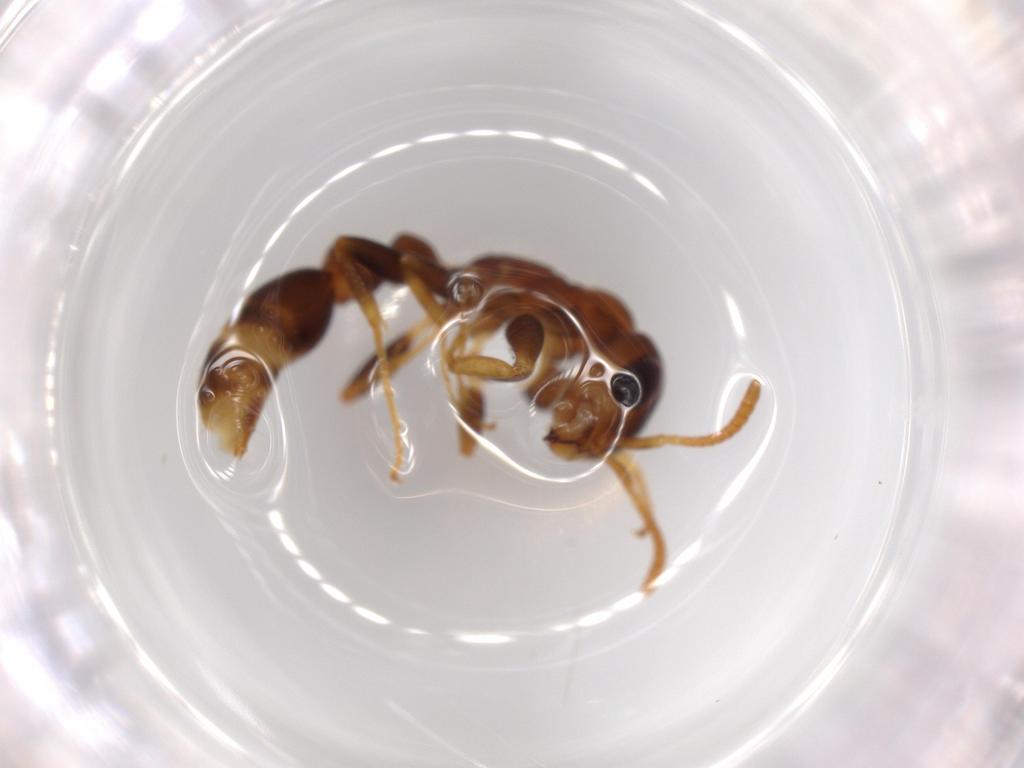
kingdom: Animalia
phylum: Arthropoda
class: Insecta
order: Hymenoptera
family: Formicidae
